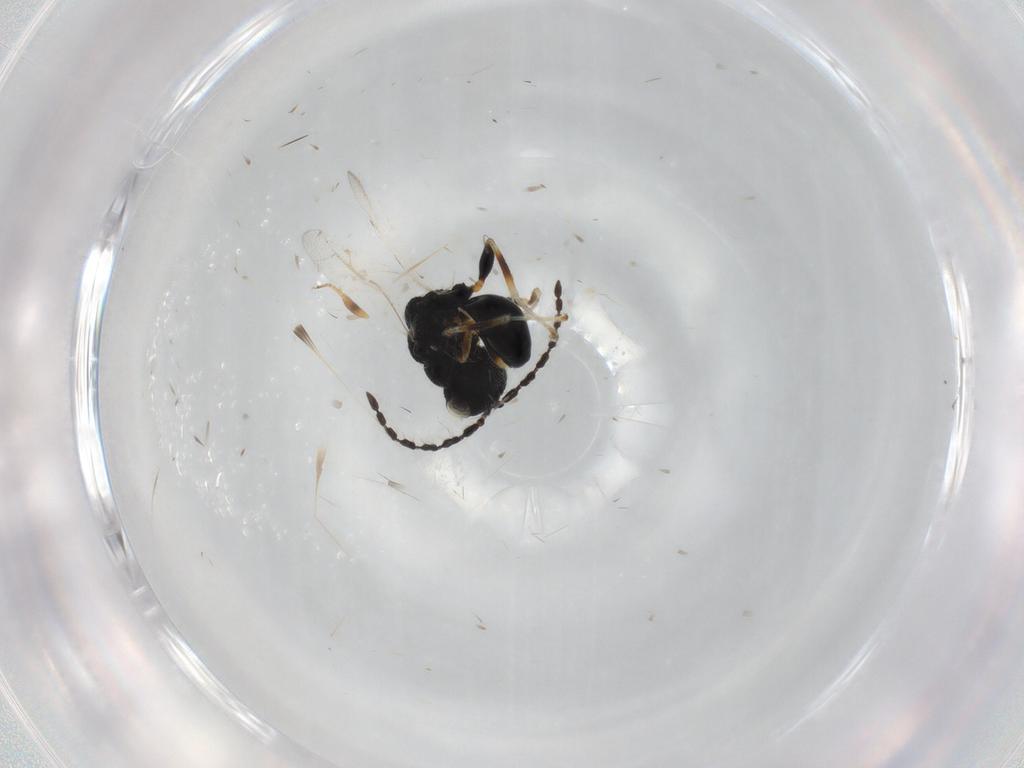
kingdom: Animalia
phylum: Arthropoda
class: Insecta
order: Hymenoptera
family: Eurytomidae
